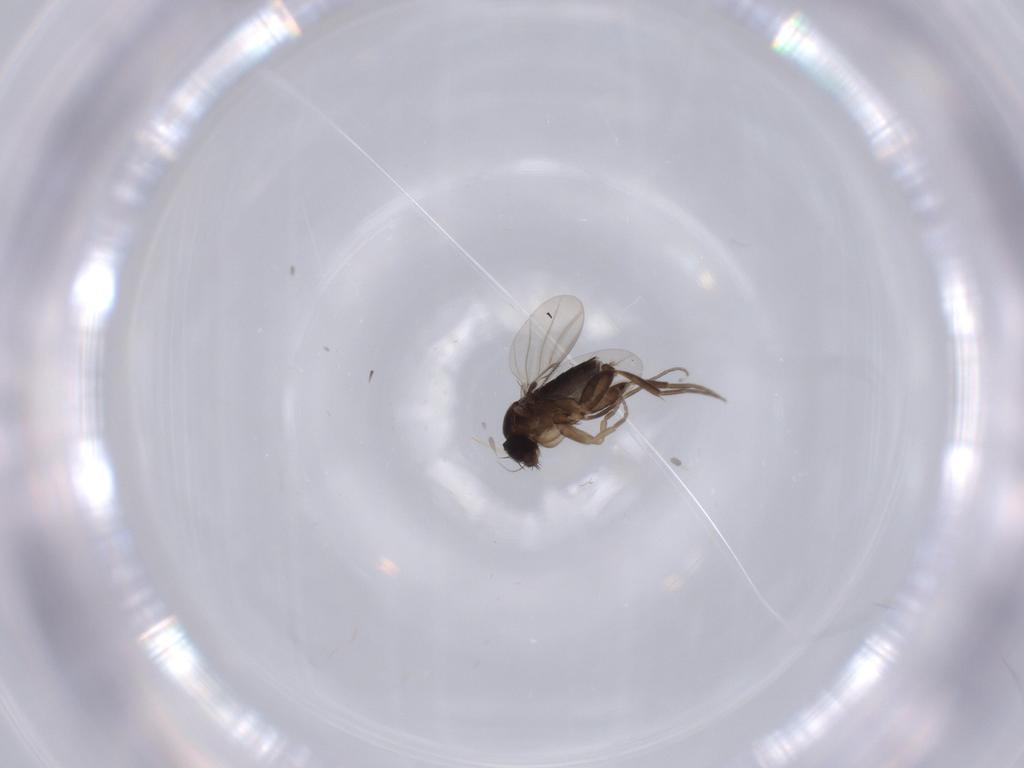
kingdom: Animalia
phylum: Arthropoda
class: Insecta
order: Diptera
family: Phoridae
